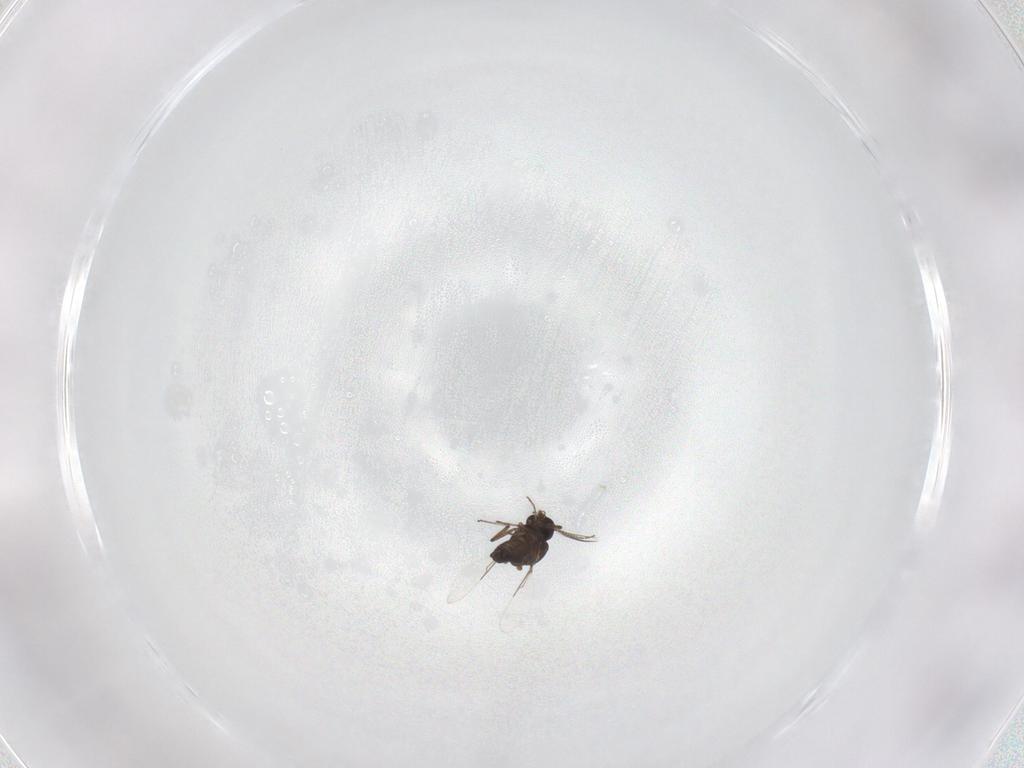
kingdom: Animalia
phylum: Arthropoda
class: Insecta
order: Diptera
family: Ceratopogonidae
